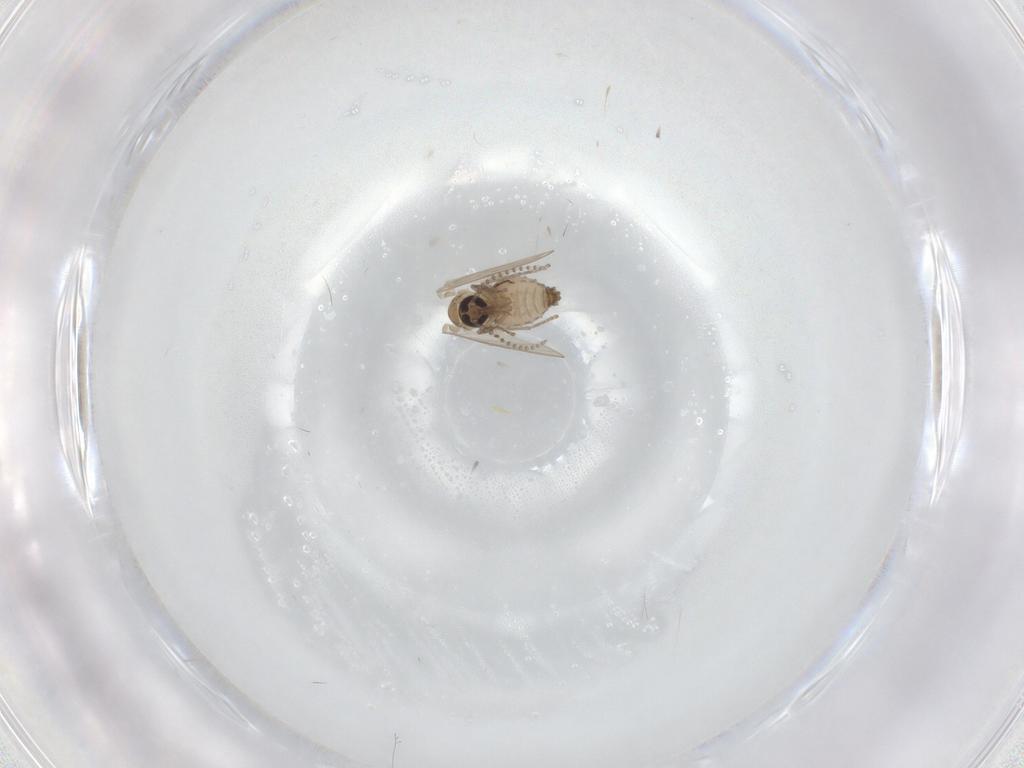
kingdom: Animalia
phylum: Arthropoda
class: Insecta
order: Diptera
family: Psychodidae
